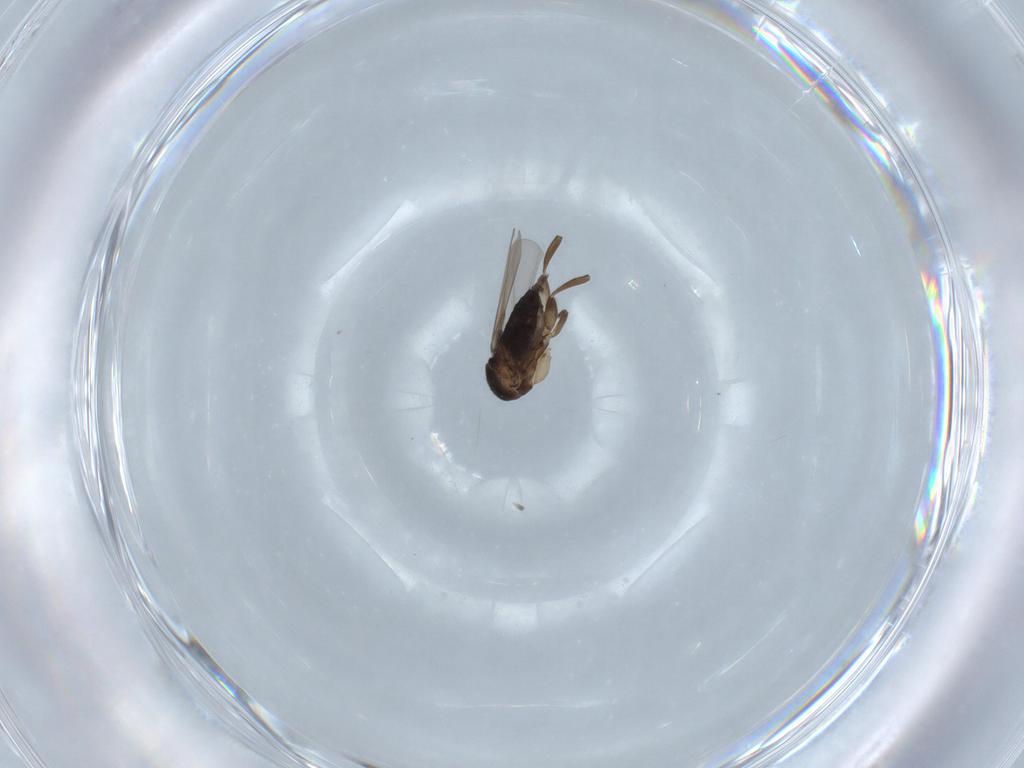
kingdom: Animalia
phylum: Arthropoda
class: Insecta
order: Diptera
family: Phoridae
